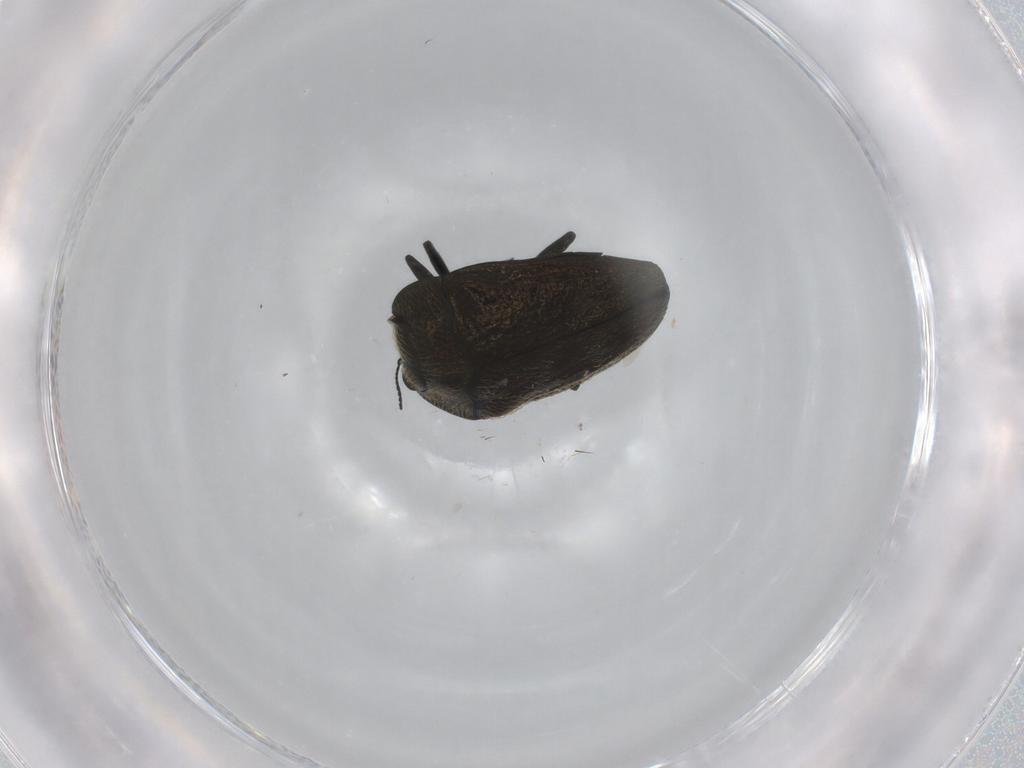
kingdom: Animalia
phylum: Arthropoda
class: Insecta
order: Coleoptera
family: Buprestidae
